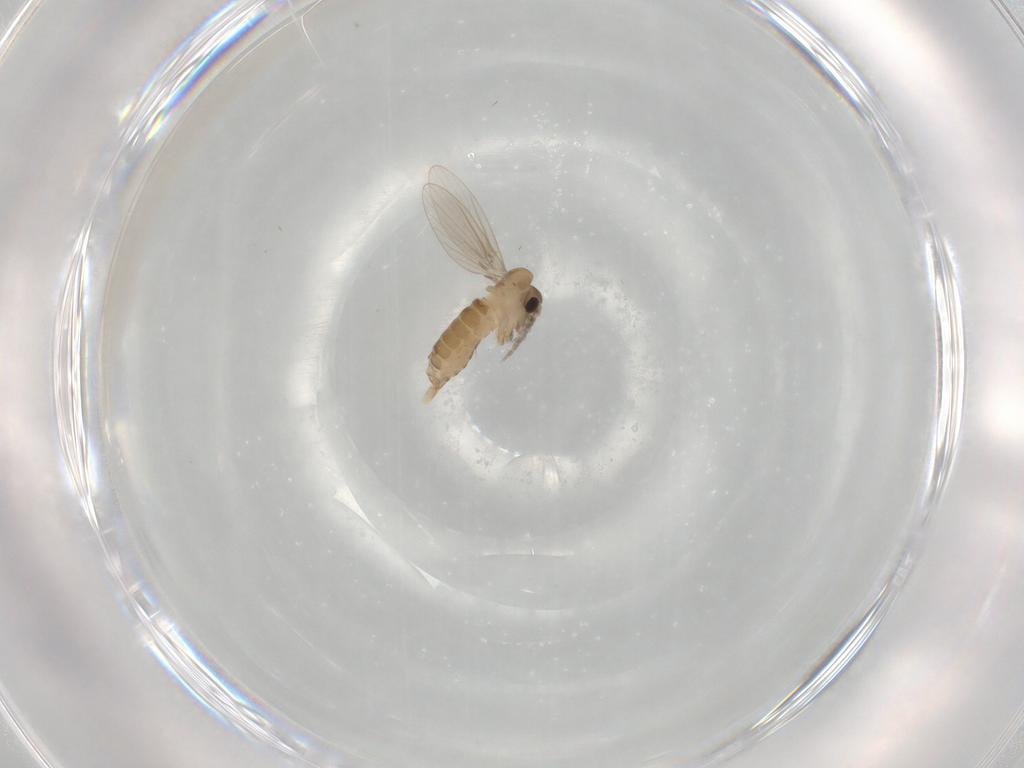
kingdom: Animalia
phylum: Arthropoda
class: Insecta
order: Diptera
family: Psychodidae
